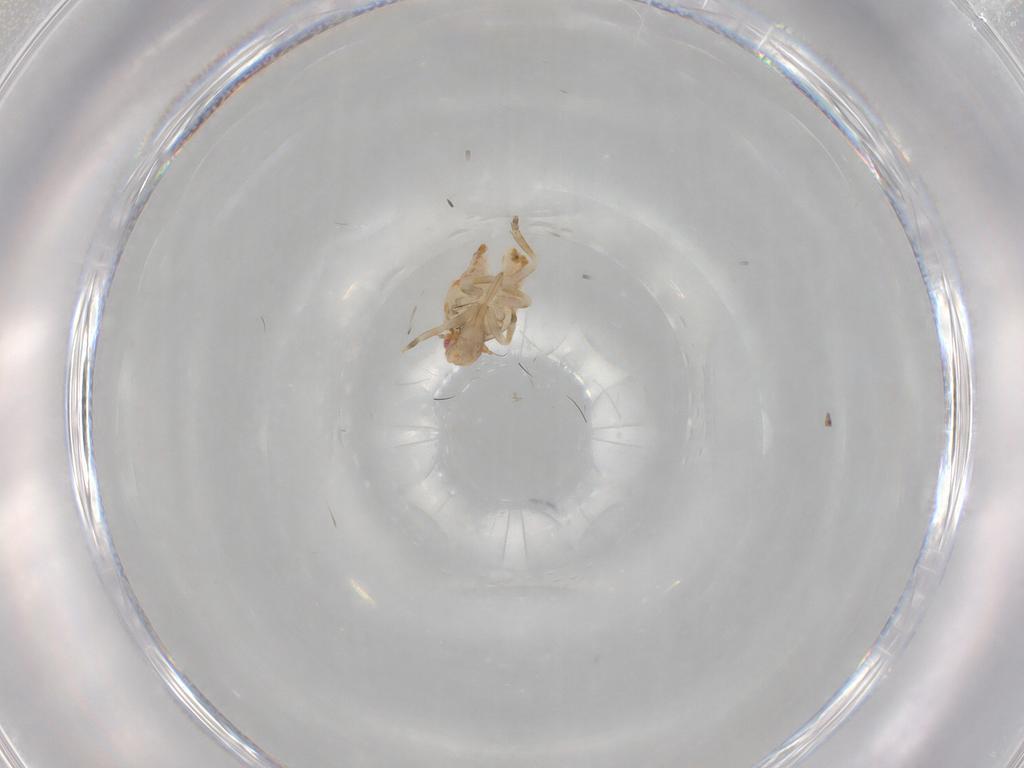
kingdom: Animalia
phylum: Arthropoda
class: Insecta
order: Hemiptera
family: Flatidae
